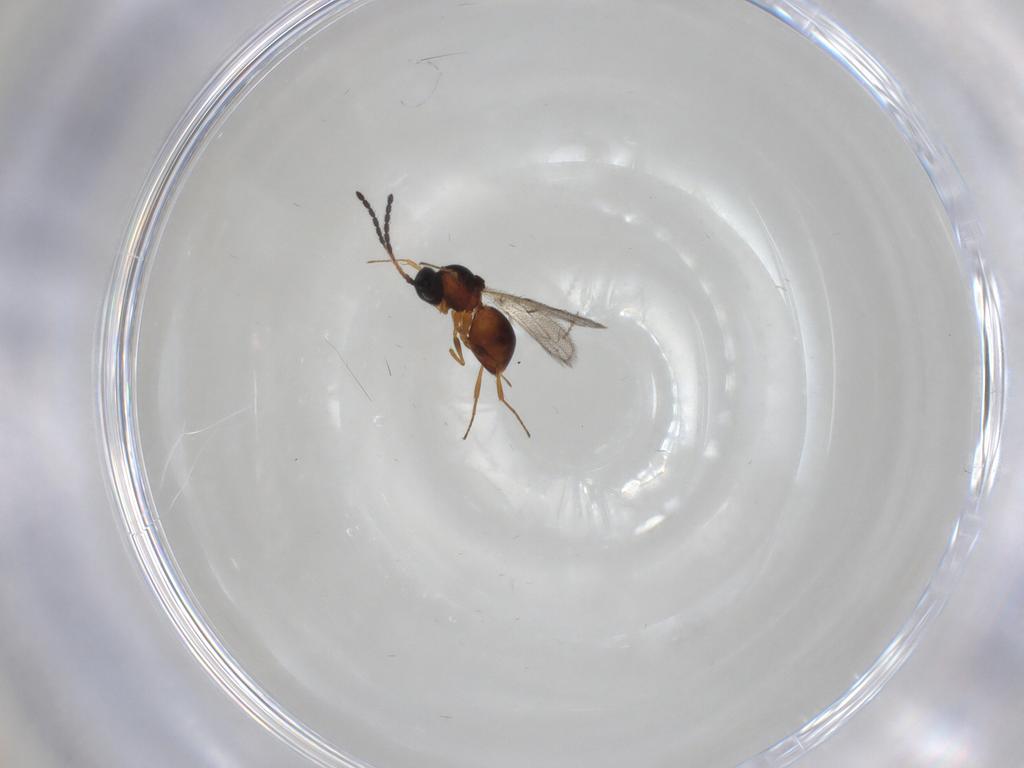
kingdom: Animalia
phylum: Arthropoda
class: Insecta
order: Hymenoptera
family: Figitidae
